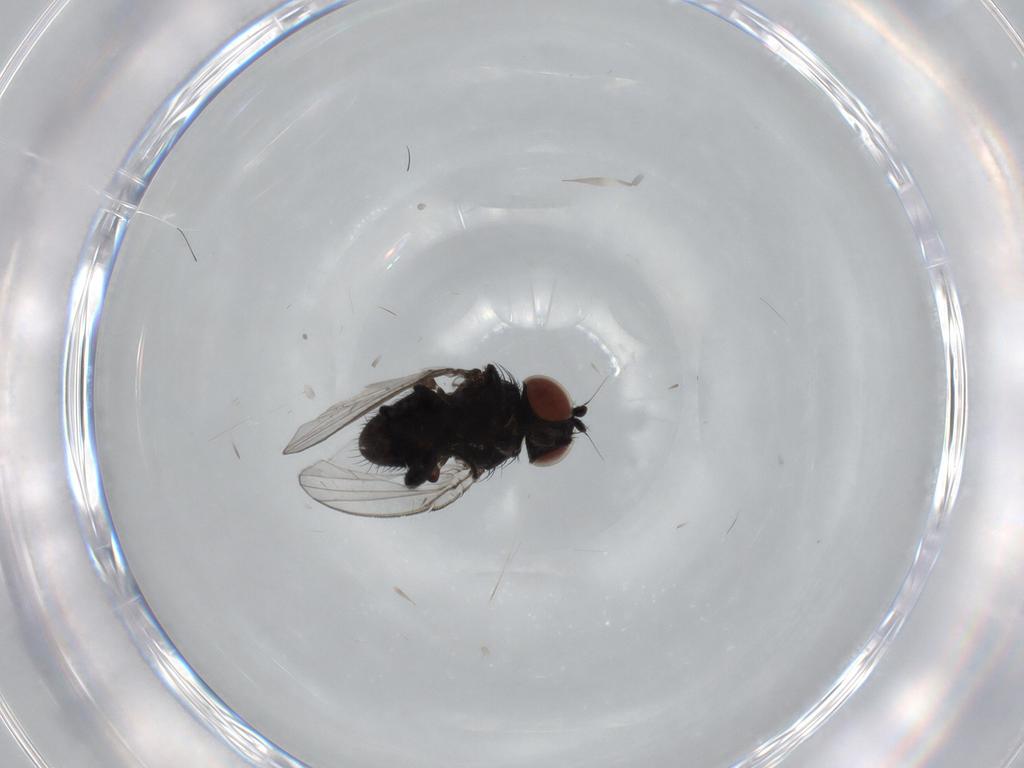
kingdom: Animalia
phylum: Arthropoda
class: Insecta
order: Diptera
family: Milichiidae
